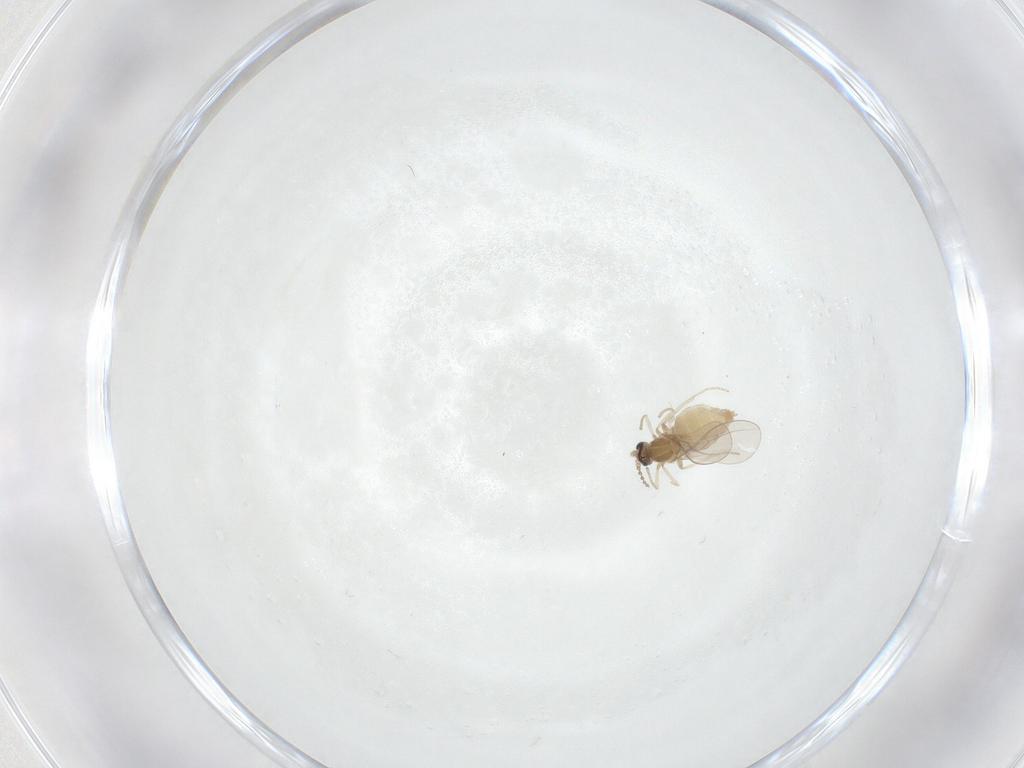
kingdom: Animalia
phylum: Arthropoda
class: Insecta
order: Diptera
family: Cecidomyiidae
